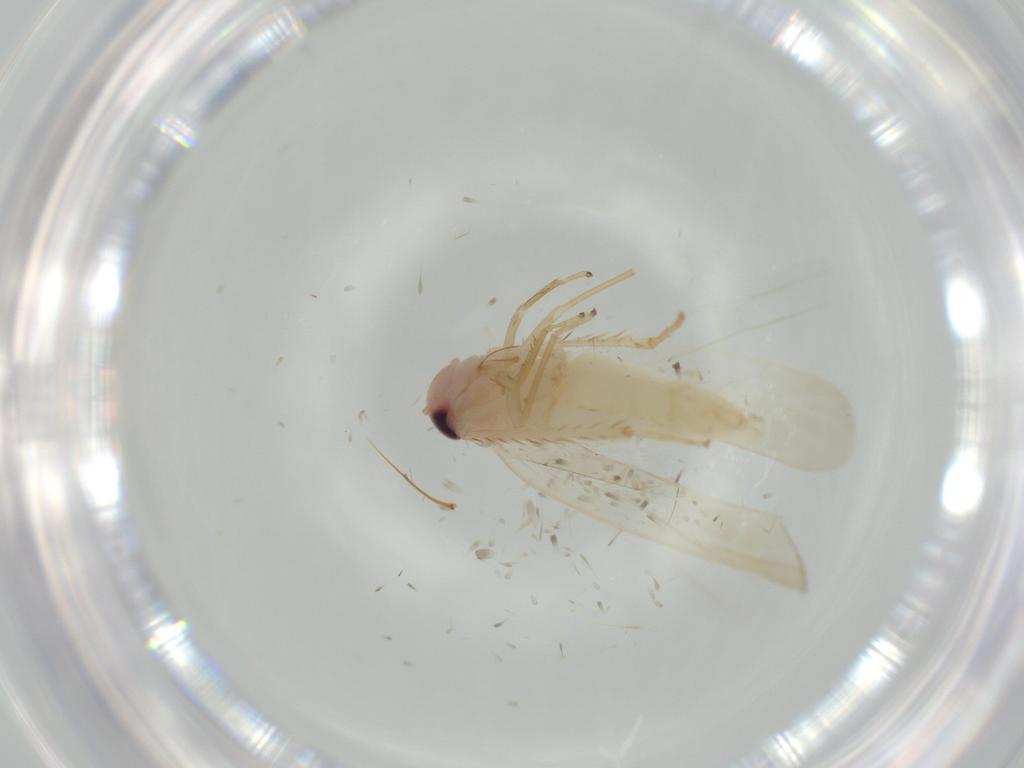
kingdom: Animalia
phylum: Arthropoda
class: Insecta
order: Hemiptera
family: Cicadellidae
